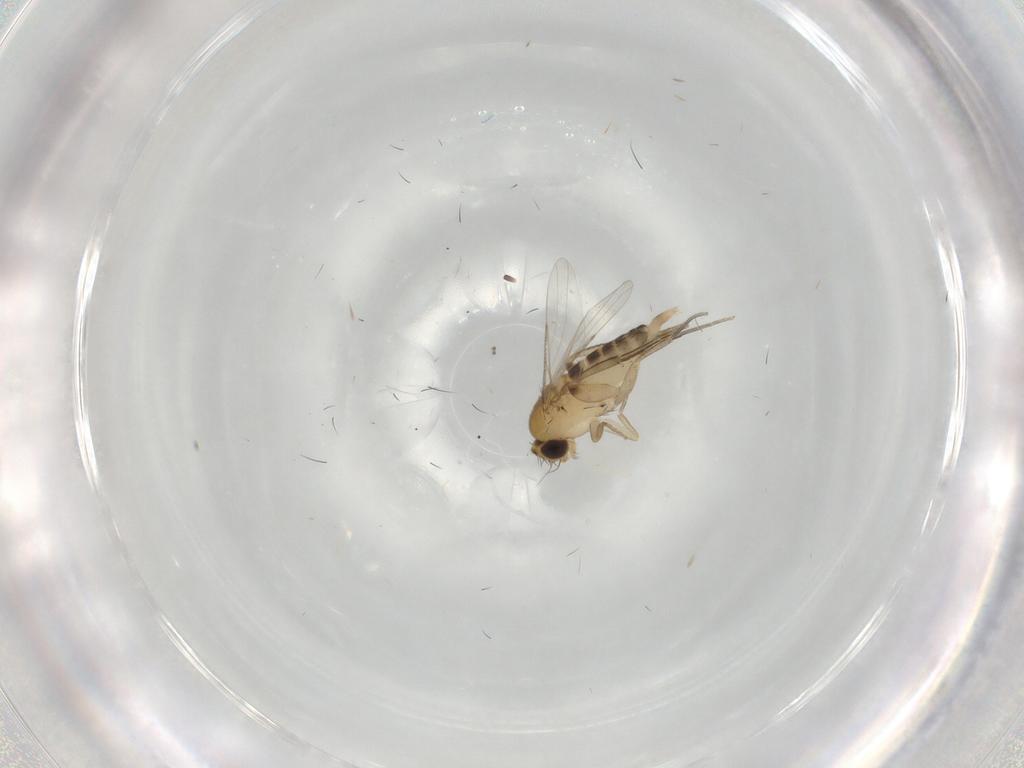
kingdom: Animalia
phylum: Arthropoda
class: Insecta
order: Diptera
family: Phoridae
